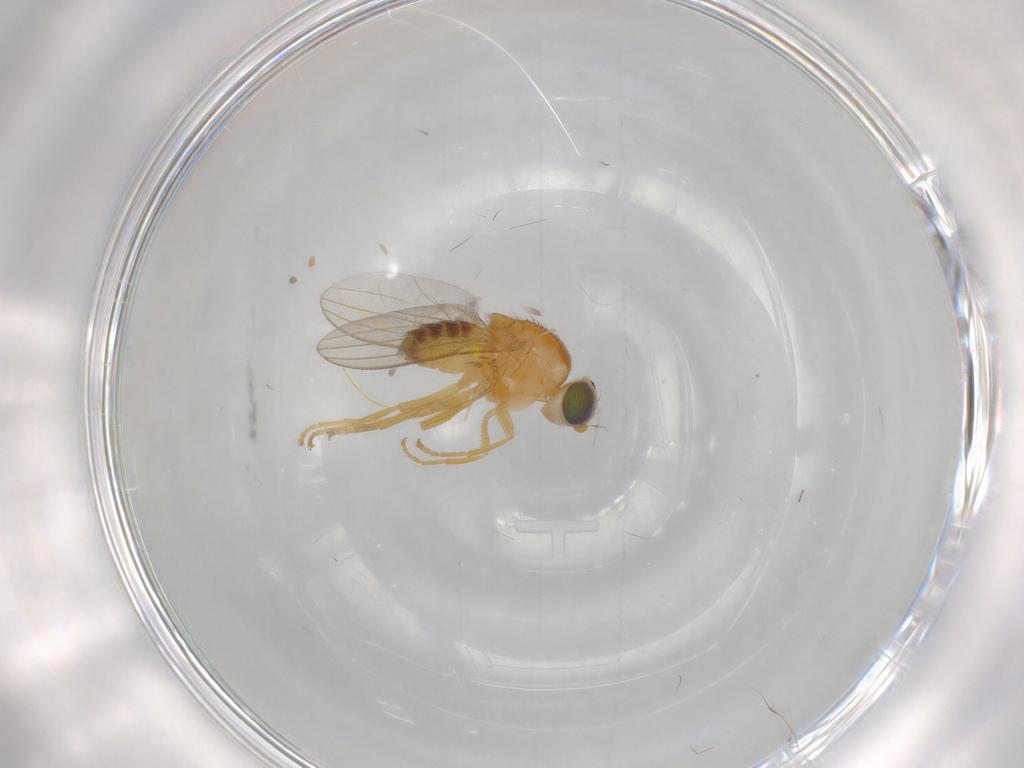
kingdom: Animalia
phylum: Arthropoda
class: Insecta
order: Diptera
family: Chyromyidae
